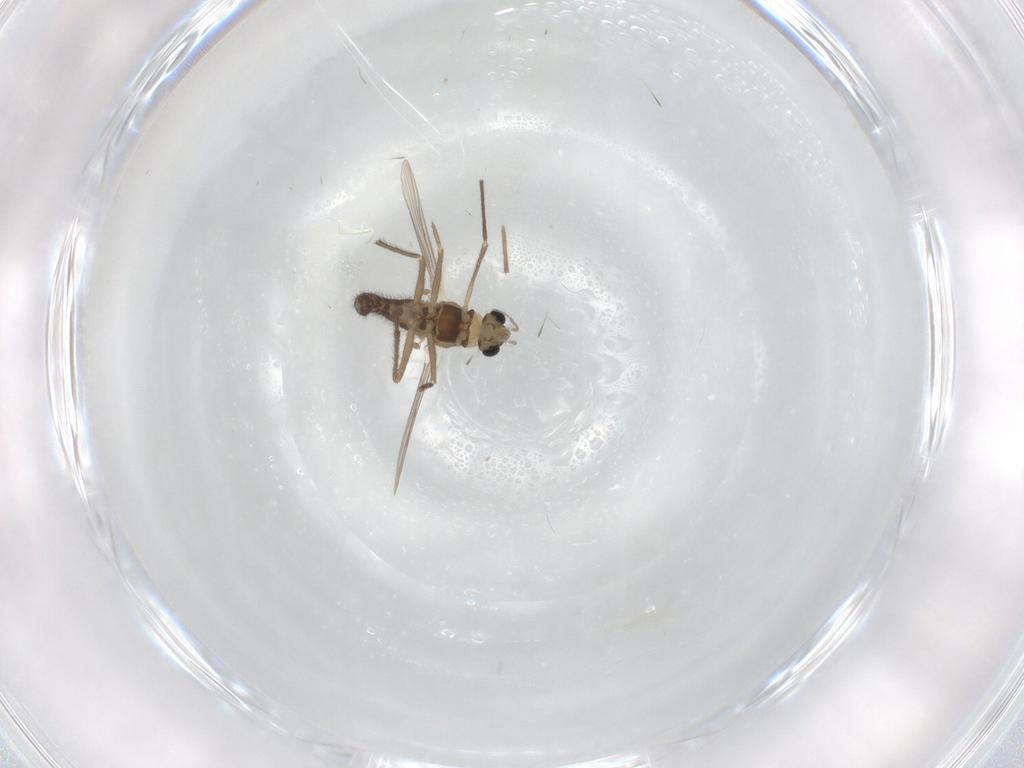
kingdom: Animalia
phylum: Arthropoda
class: Insecta
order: Diptera
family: Chironomidae
